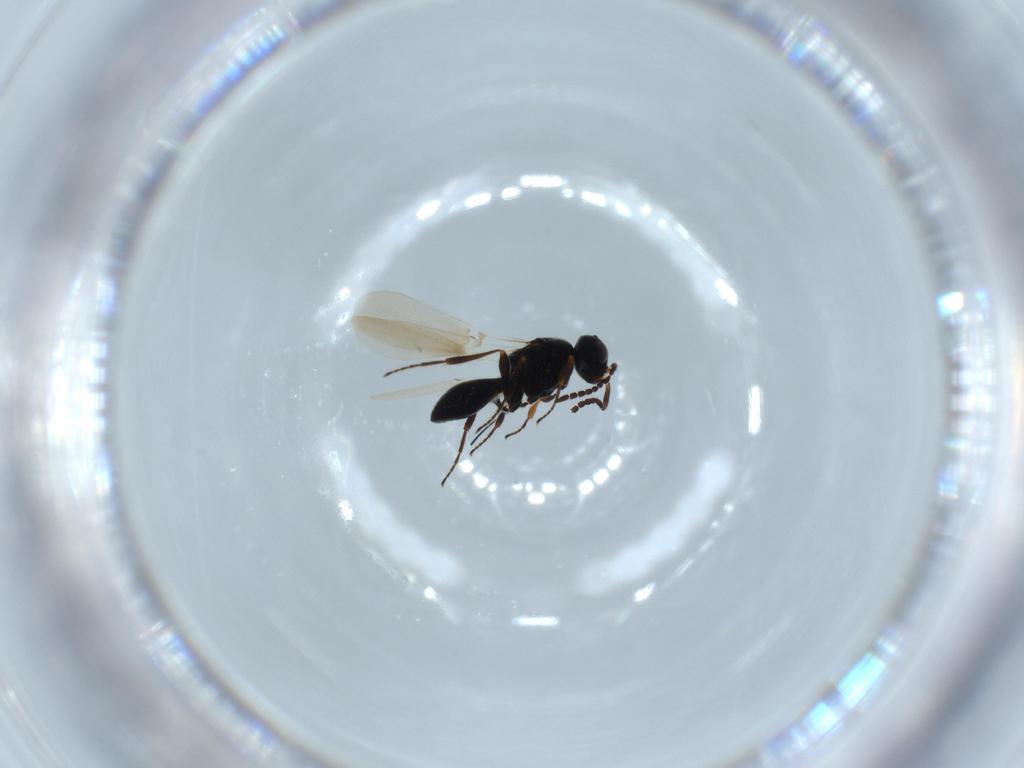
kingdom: Animalia
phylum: Arthropoda
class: Insecta
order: Hymenoptera
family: Platygastridae
